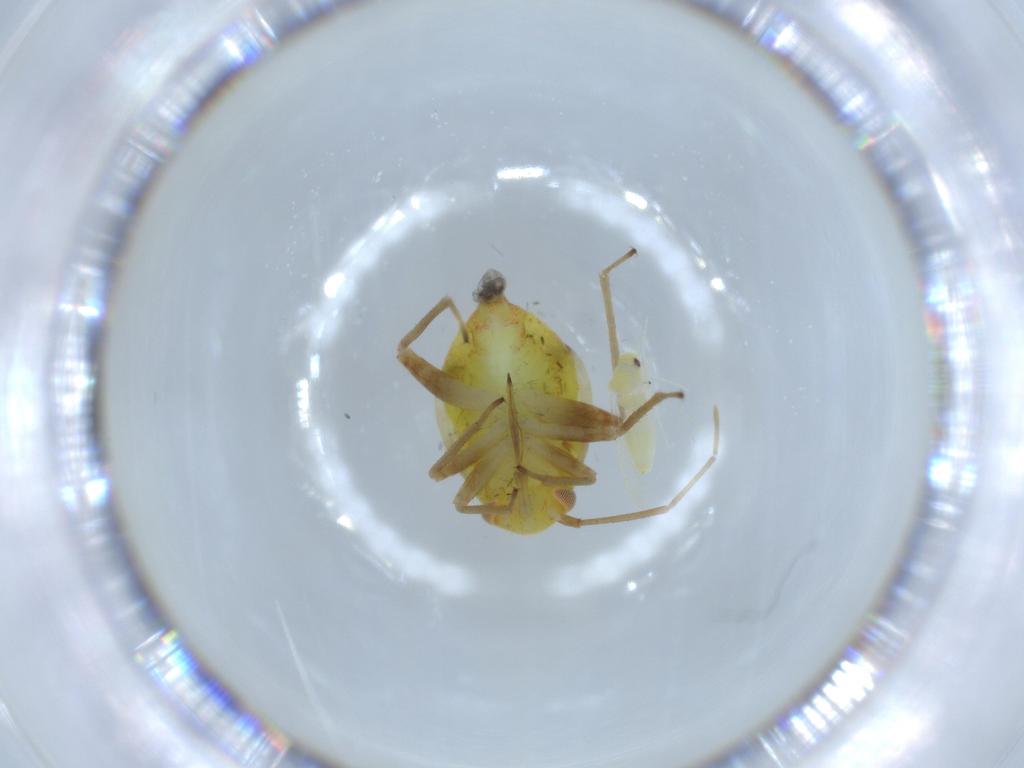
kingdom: Animalia
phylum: Arthropoda
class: Insecta
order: Hemiptera
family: Aleyrodidae
